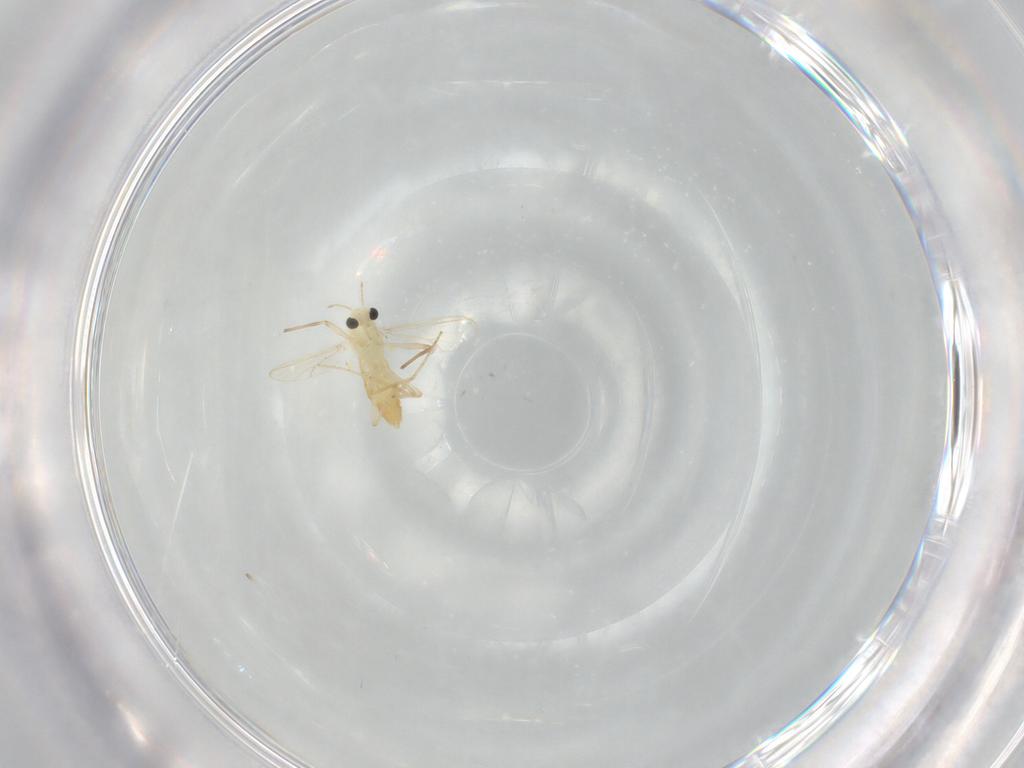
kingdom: Animalia
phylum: Arthropoda
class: Insecta
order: Diptera
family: Chironomidae
